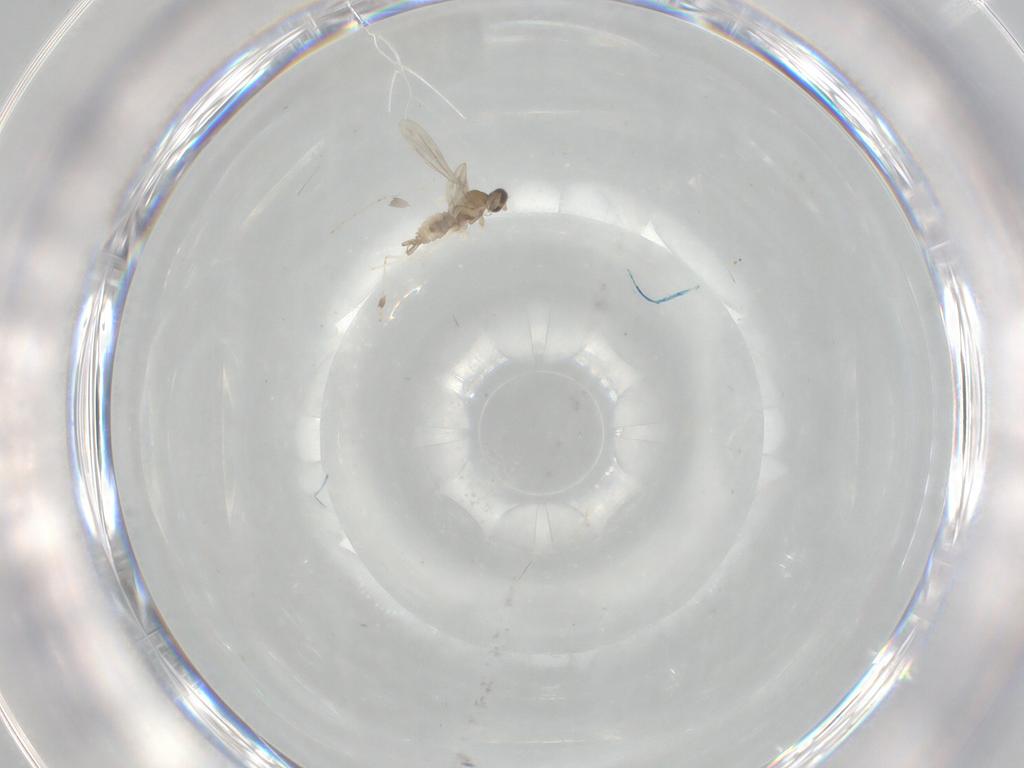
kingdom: Animalia
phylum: Arthropoda
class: Insecta
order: Diptera
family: Cecidomyiidae
